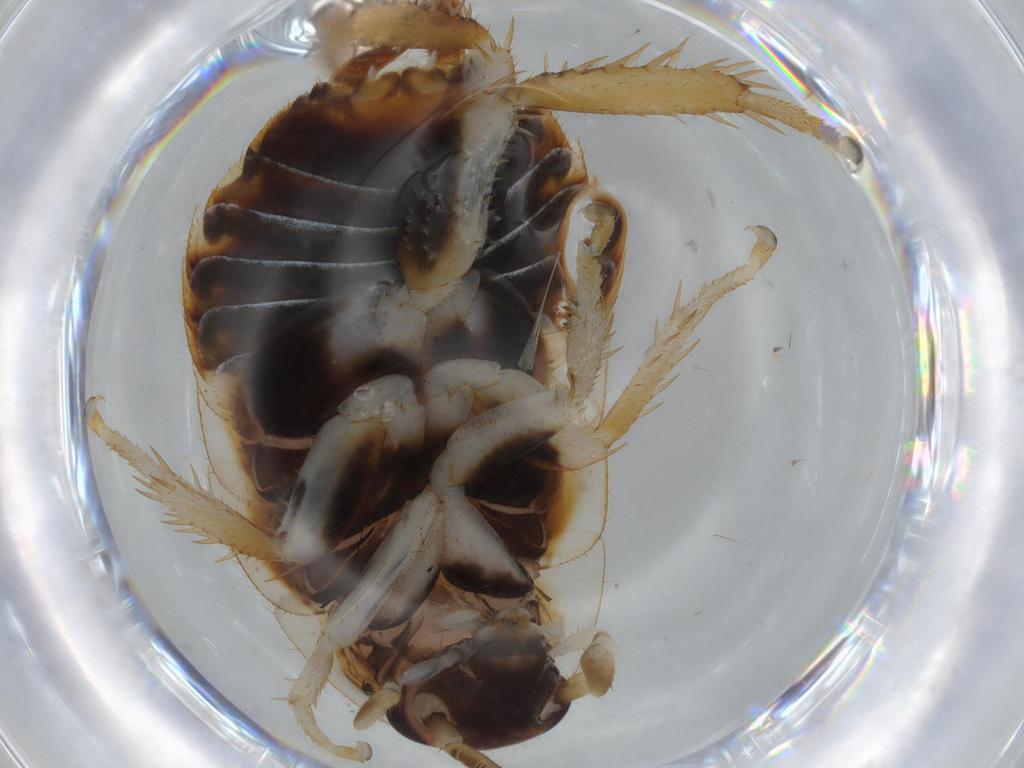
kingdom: Animalia
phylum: Arthropoda
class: Insecta
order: Blattodea
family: Ectobiidae
